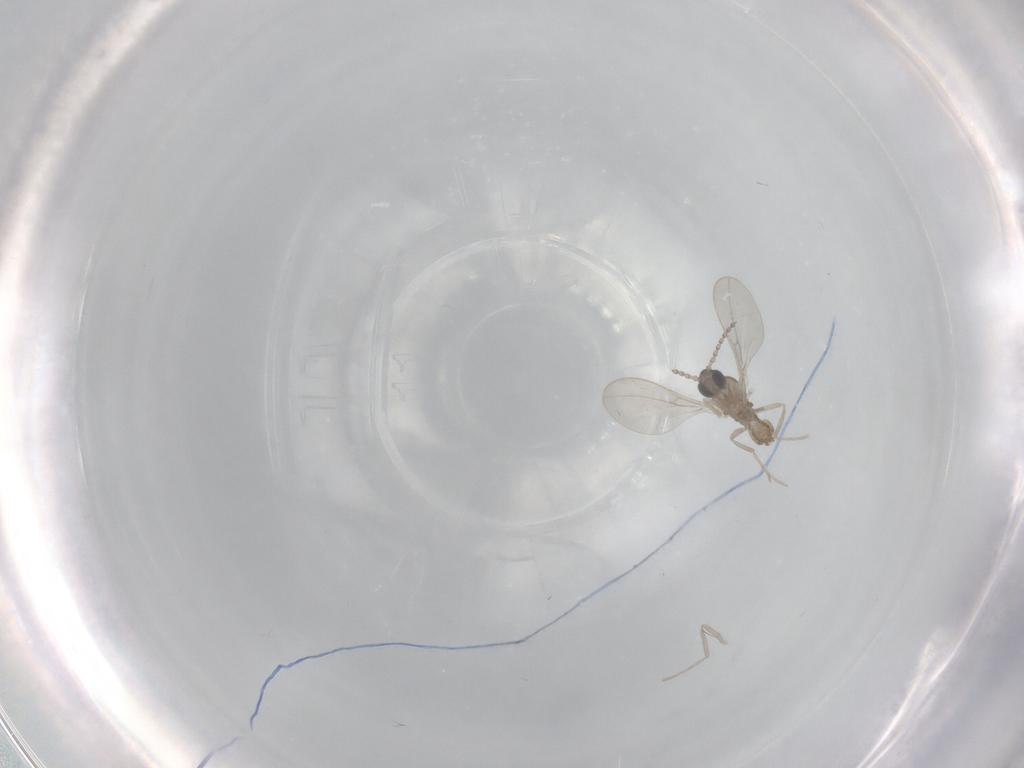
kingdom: Animalia
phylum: Arthropoda
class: Insecta
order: Diptera
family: Cecidomyiidae
